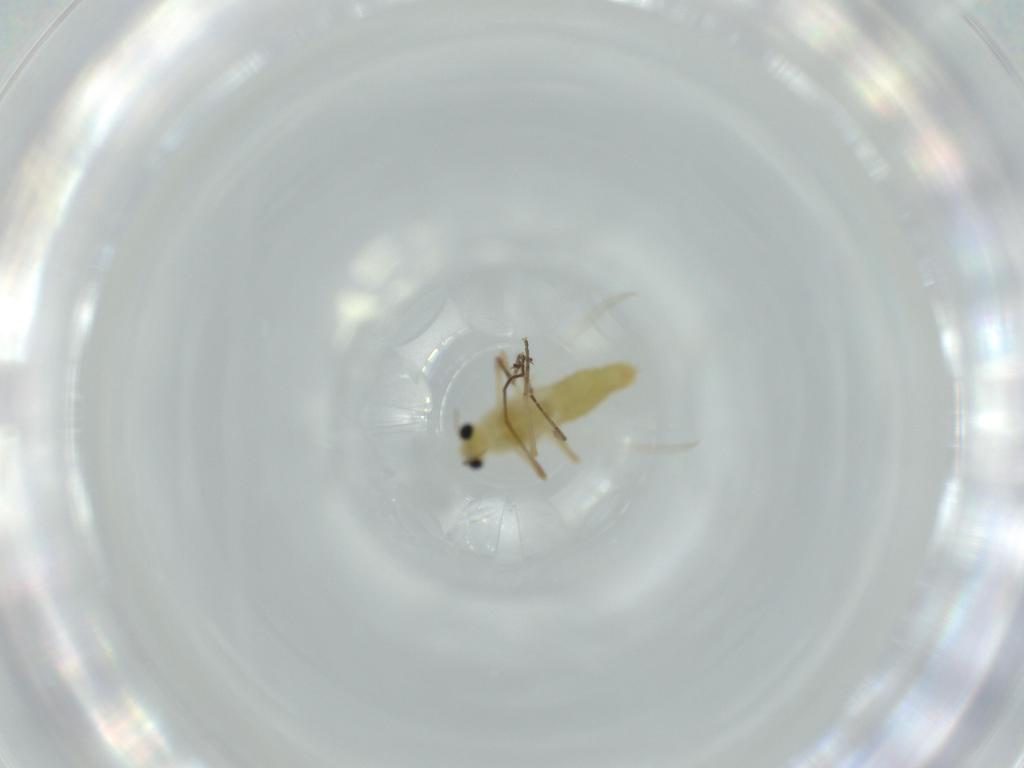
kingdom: Animalia
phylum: Arthropoda
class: Insecta
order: Diptera
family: Chironomidae
